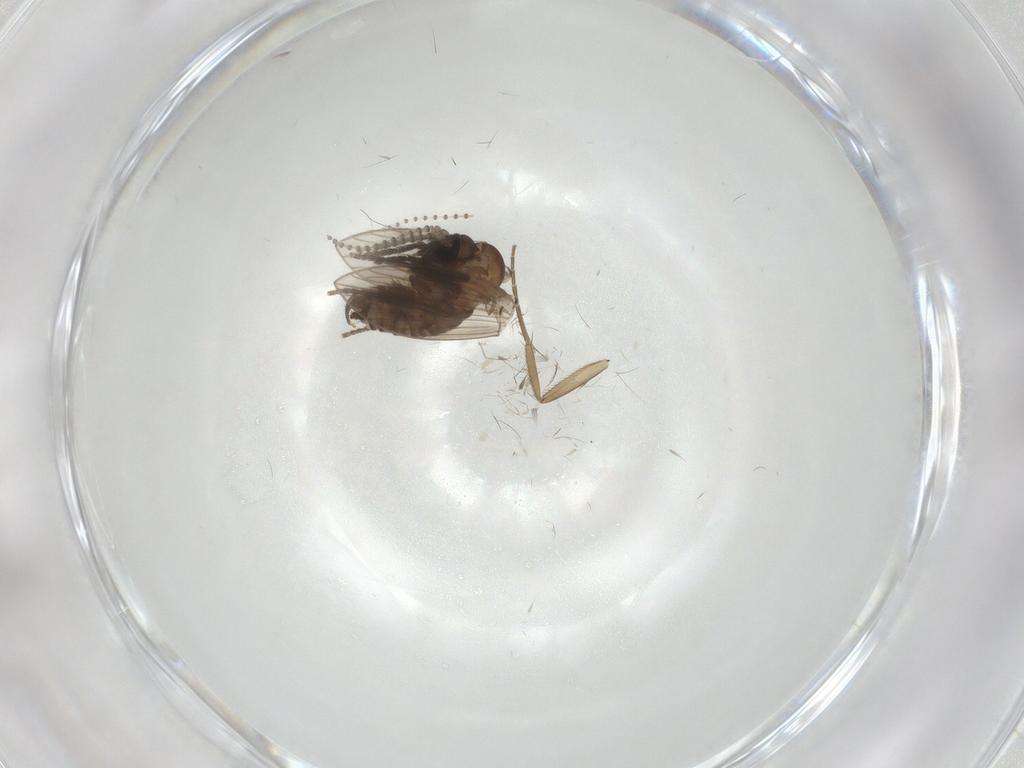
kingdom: Animalia
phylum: Arthropoda
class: Insecta
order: Diptera
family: Psychodidae
